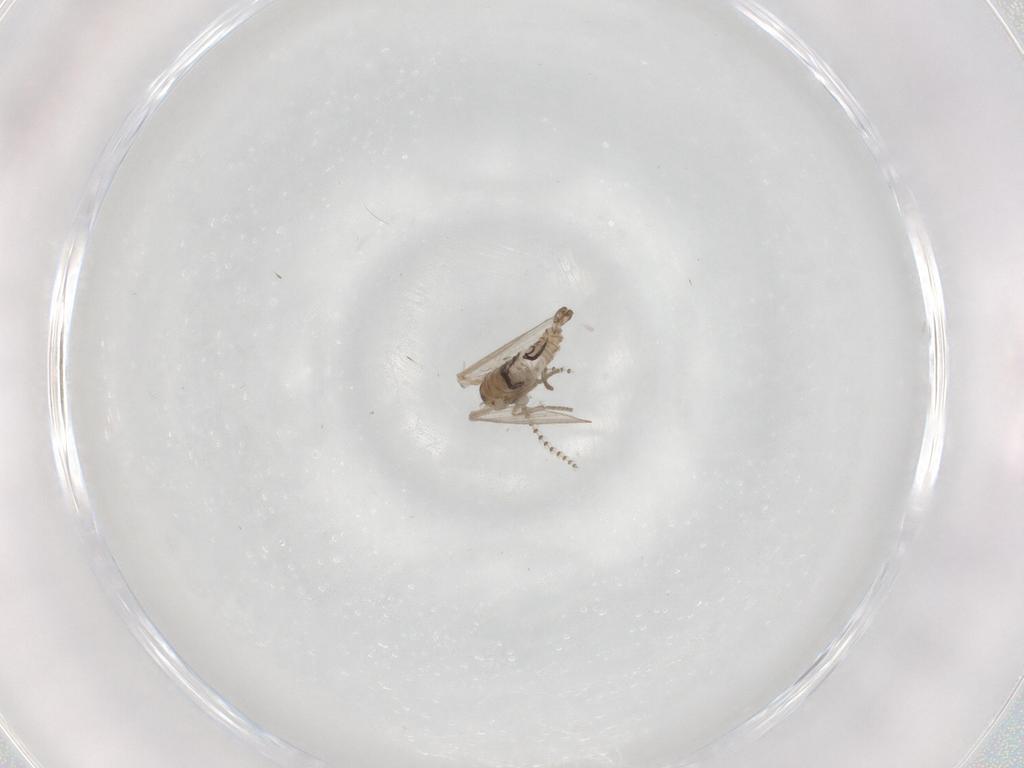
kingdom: Animalia
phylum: Arthropoda
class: Insecta
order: Diptera
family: Psychodidae
